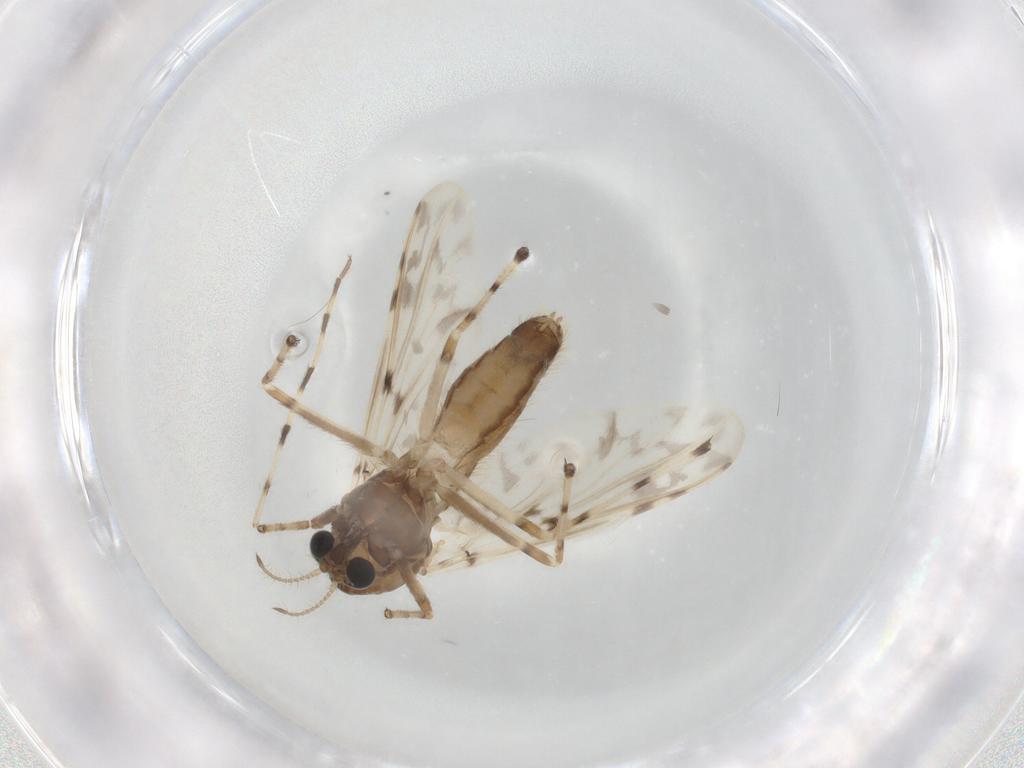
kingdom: Animalia
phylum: Arthropoda
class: Insecta
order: Diptera
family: Chironomidae
